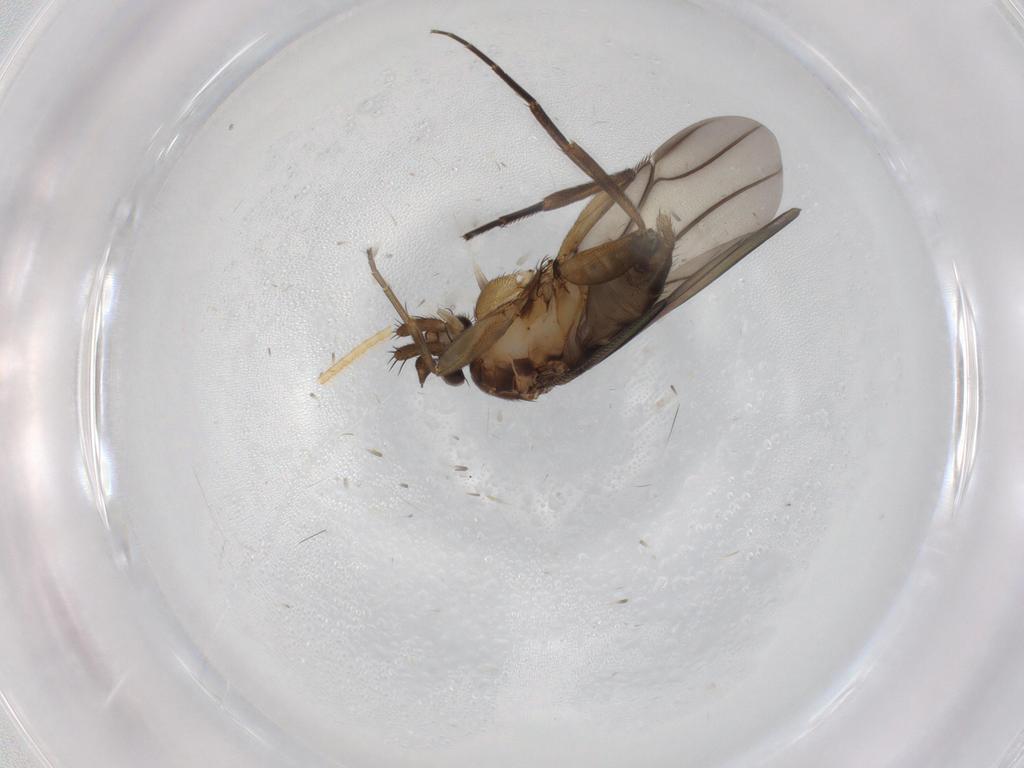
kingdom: Animalia
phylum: Arthropoda
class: Insecta
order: Diptera
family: Phoridae
